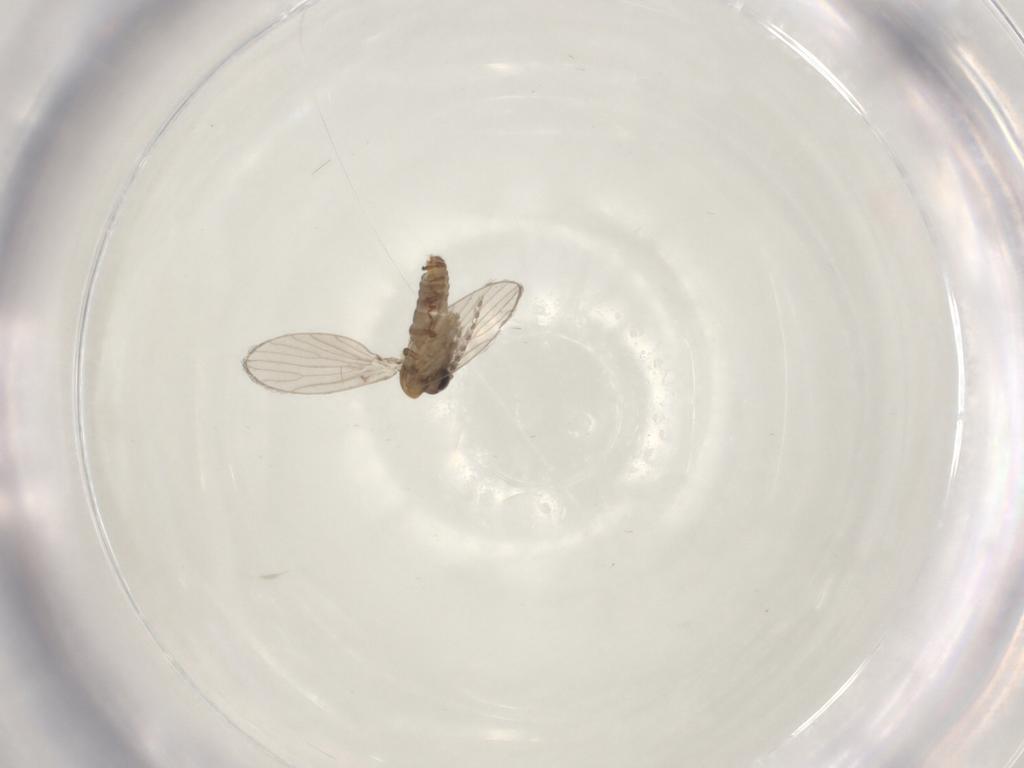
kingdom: Animalia
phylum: Arthropoda
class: Insecta
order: Diptera
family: Psychodidae
